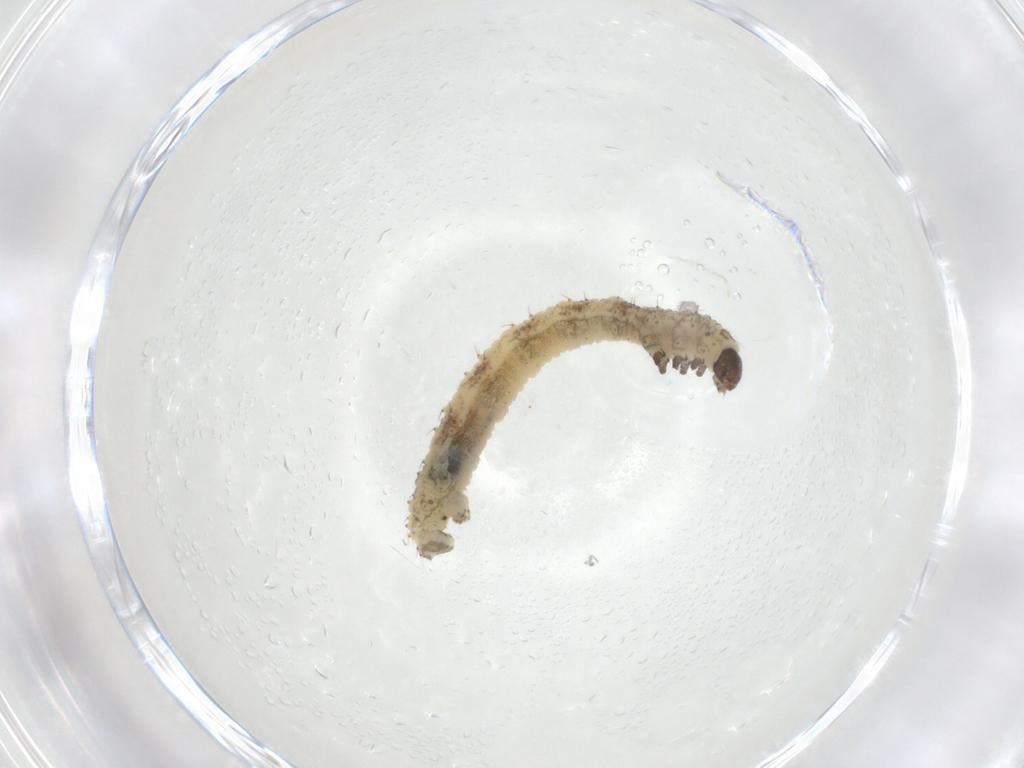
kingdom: Animalia
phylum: Arthropoda
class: Insecta
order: Lepidoptera
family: Geometridae
